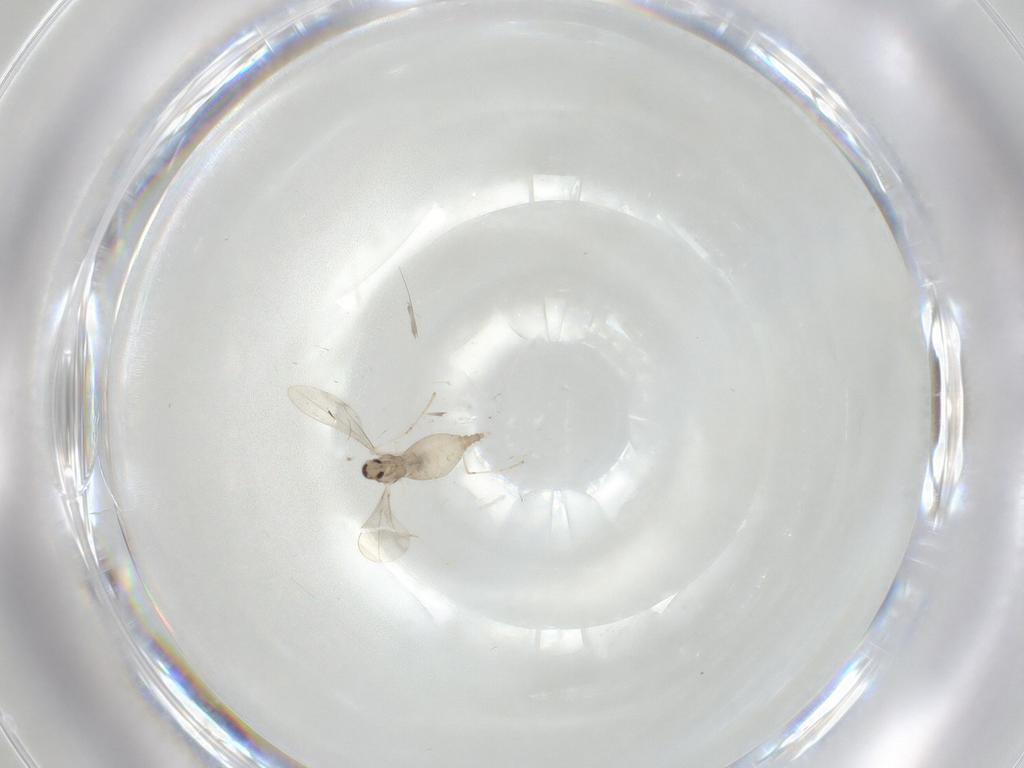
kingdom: Animalia
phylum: Arthropoda
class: Insecta
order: Diptera
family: Cecidomyiidae
